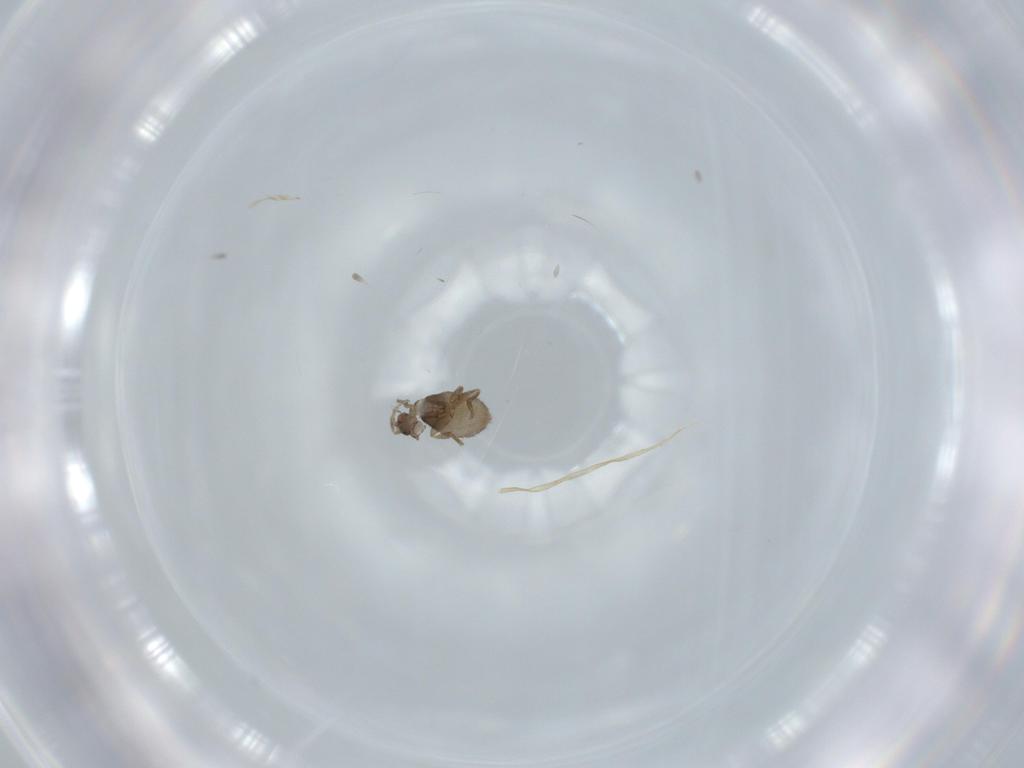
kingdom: Animalia
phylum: Arthropoda
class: Insecta
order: Diptera
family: Phoridae
